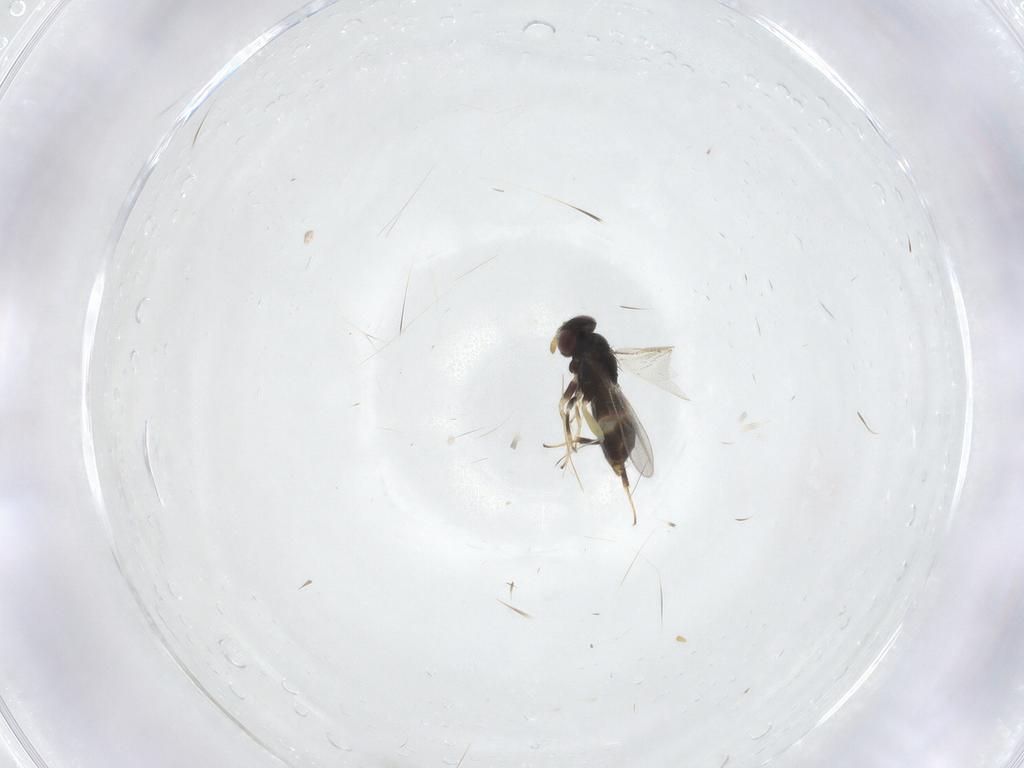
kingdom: Animalia
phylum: Arthropoda
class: Insecta
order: Hymenoptera
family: Aphelinidae
